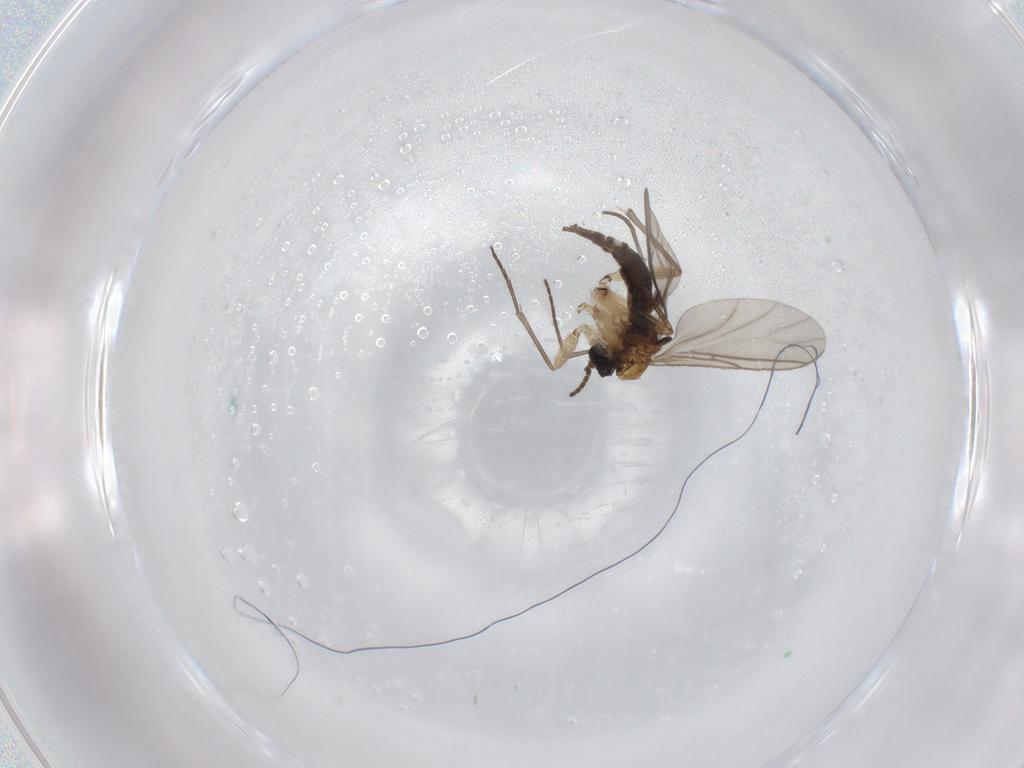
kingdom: Animalia
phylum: Arthropoda
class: Insecta
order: Diptera
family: Sciaridae
